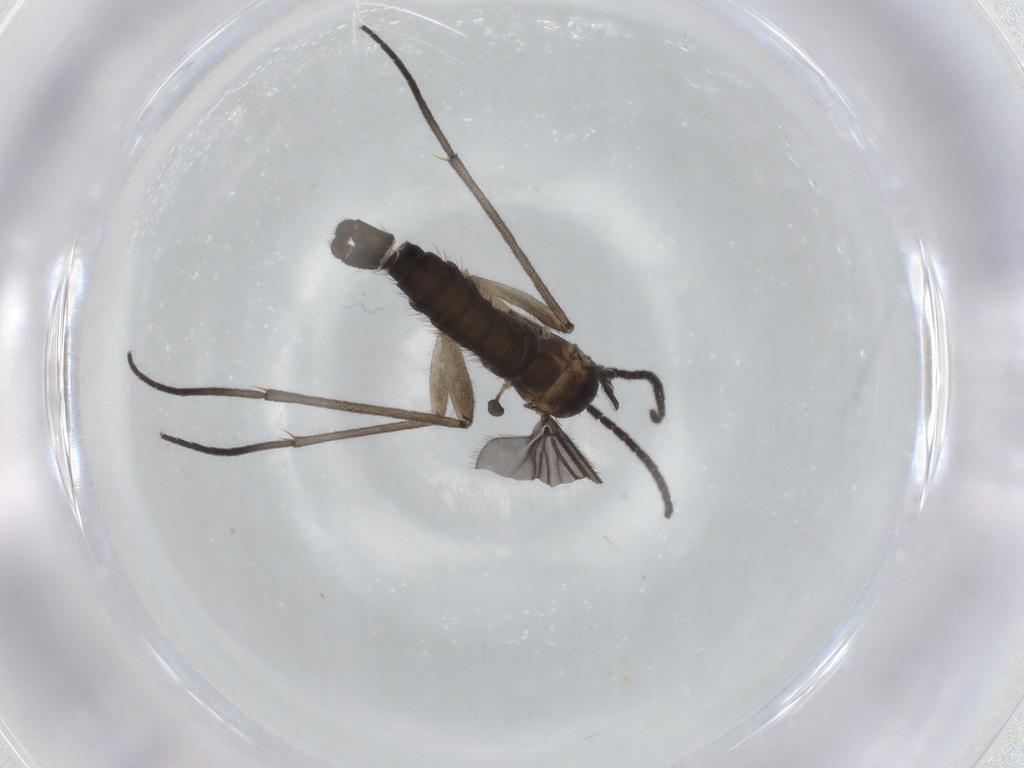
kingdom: Animalia
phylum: Arthropoda
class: Insecta
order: Diptera
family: Sciaridae
